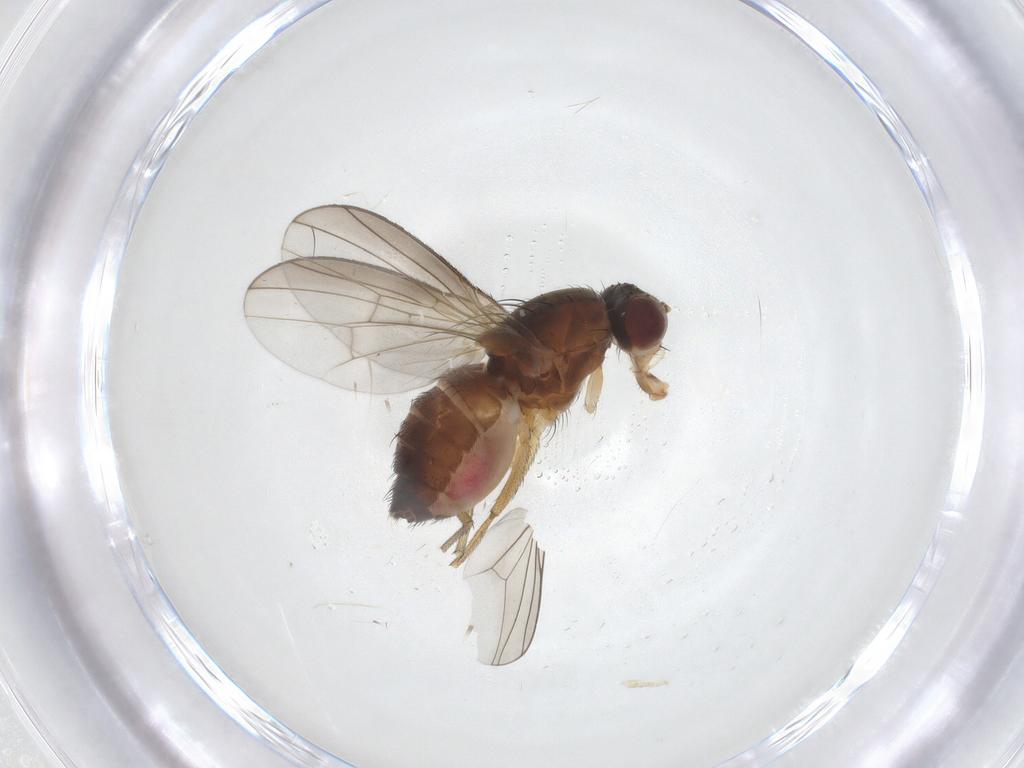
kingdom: Animalia
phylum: Arthropoda
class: Insecta
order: Diptera
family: Heleomyzidae
